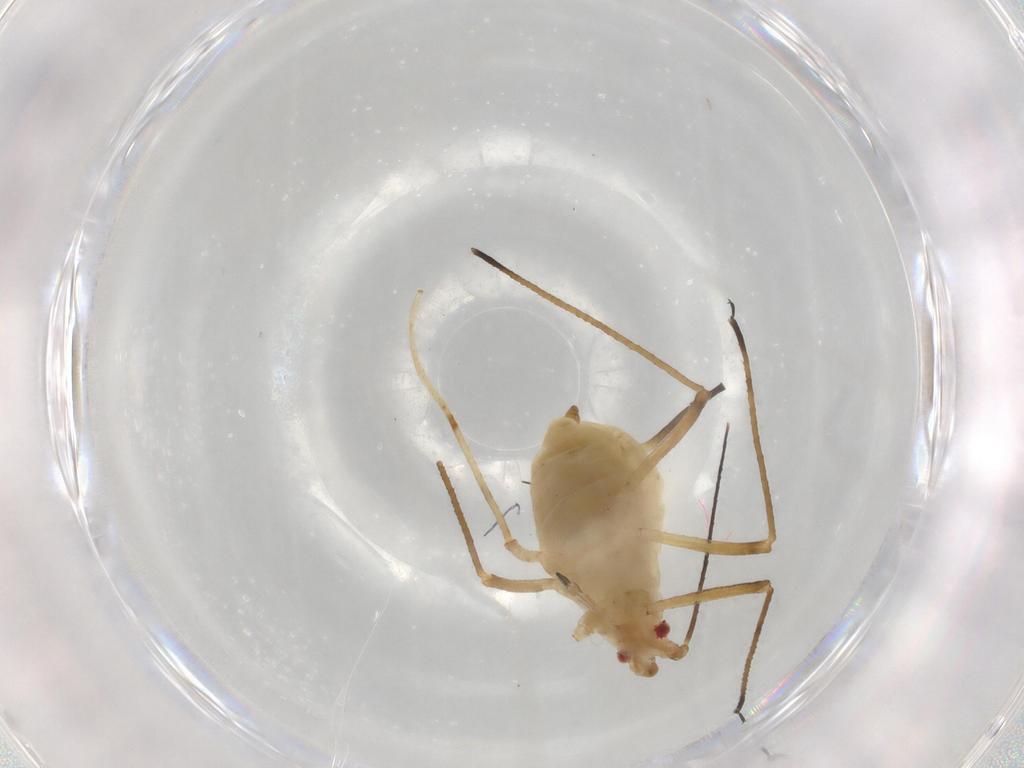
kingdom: Animalia
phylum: Arthropoda
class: Insecta
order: Hemiptera
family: Aphididae
